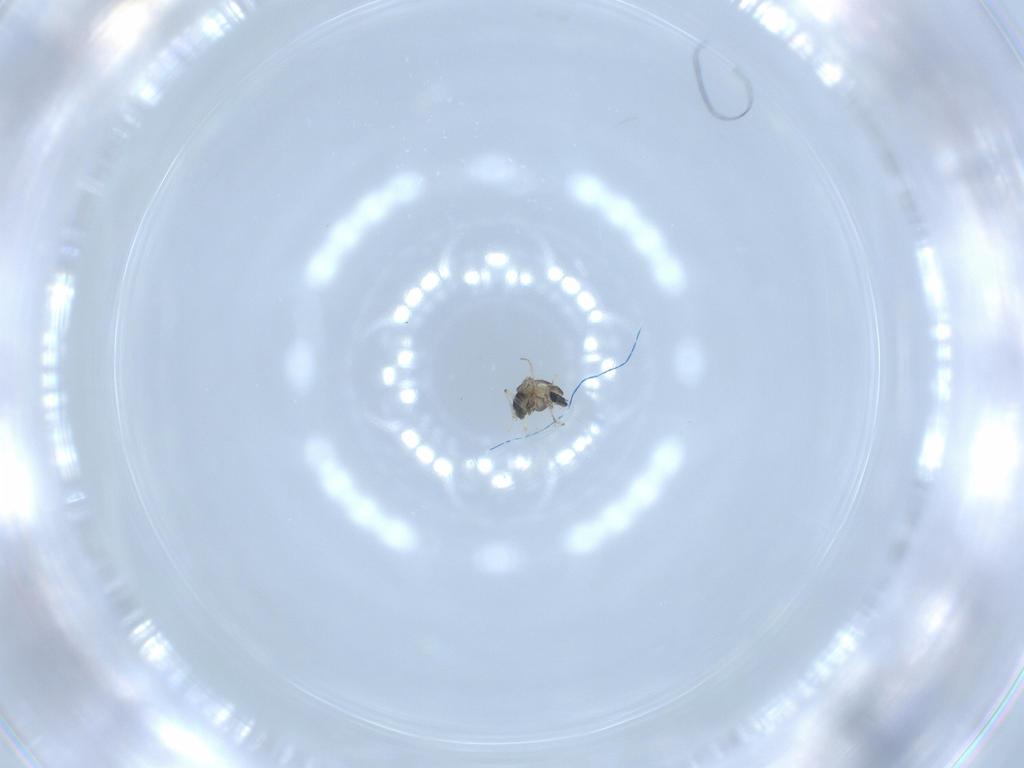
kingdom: Animalia
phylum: Arthropoda
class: Insecta
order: Diptera
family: Chironomidae
